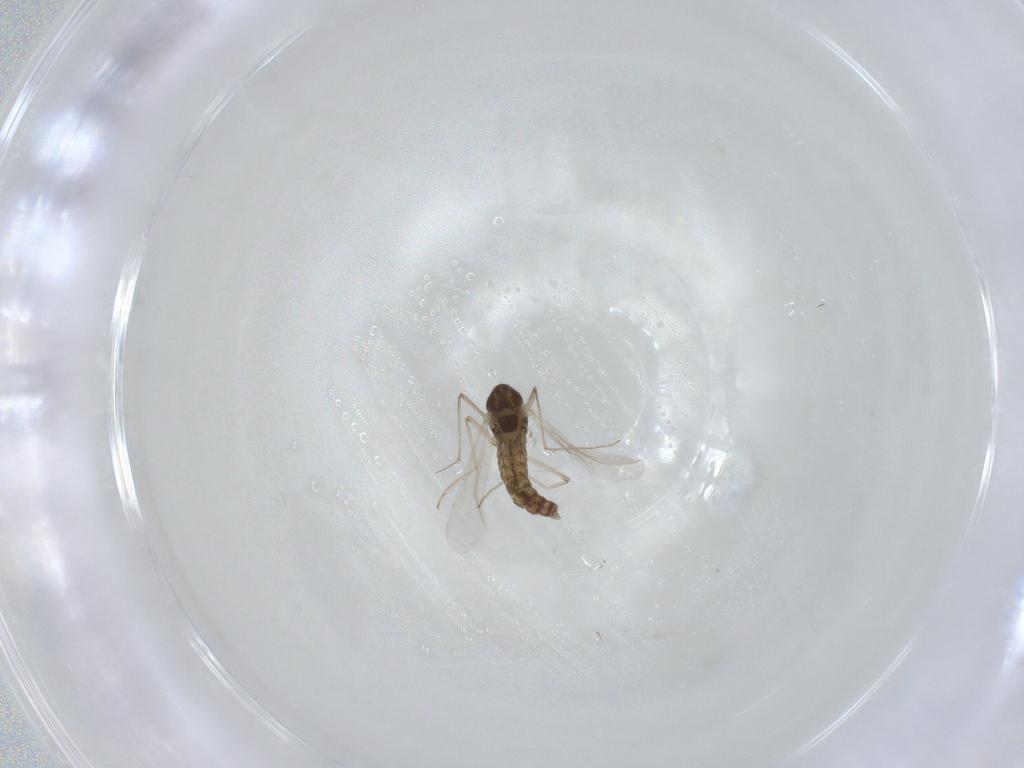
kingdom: Animalia
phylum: Arthropoda
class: Insecta
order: Diptera
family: Chironomidae
